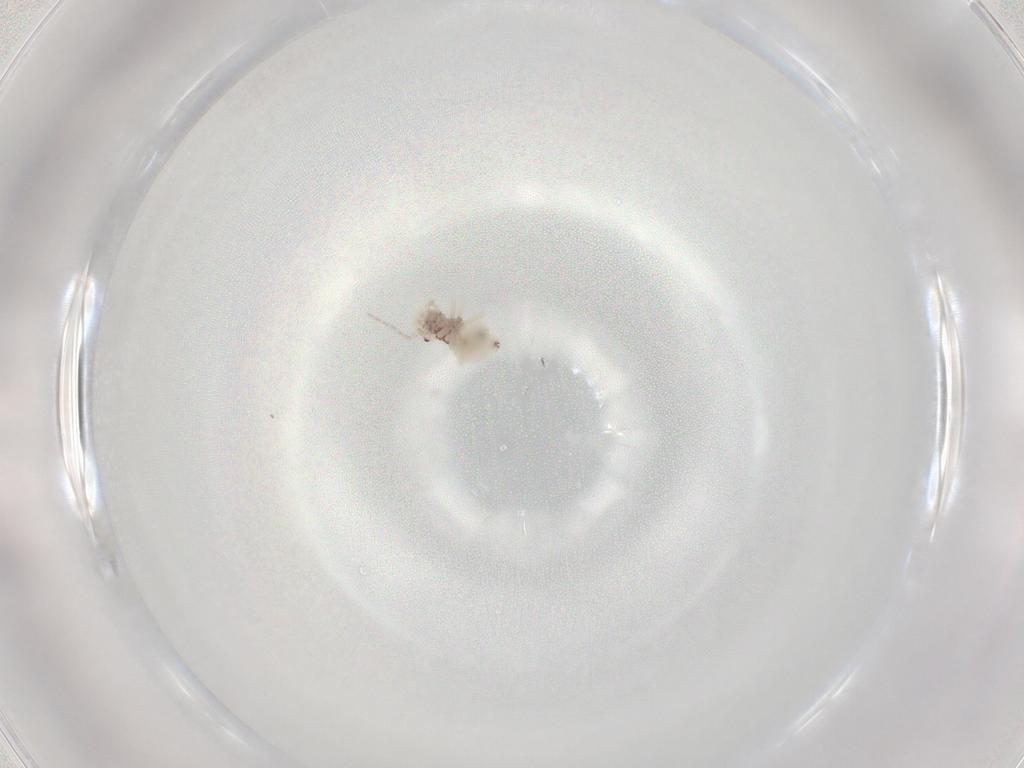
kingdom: Animalia
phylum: Arthropoda
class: Insecta
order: Psocodea
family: Amphipsocidae
